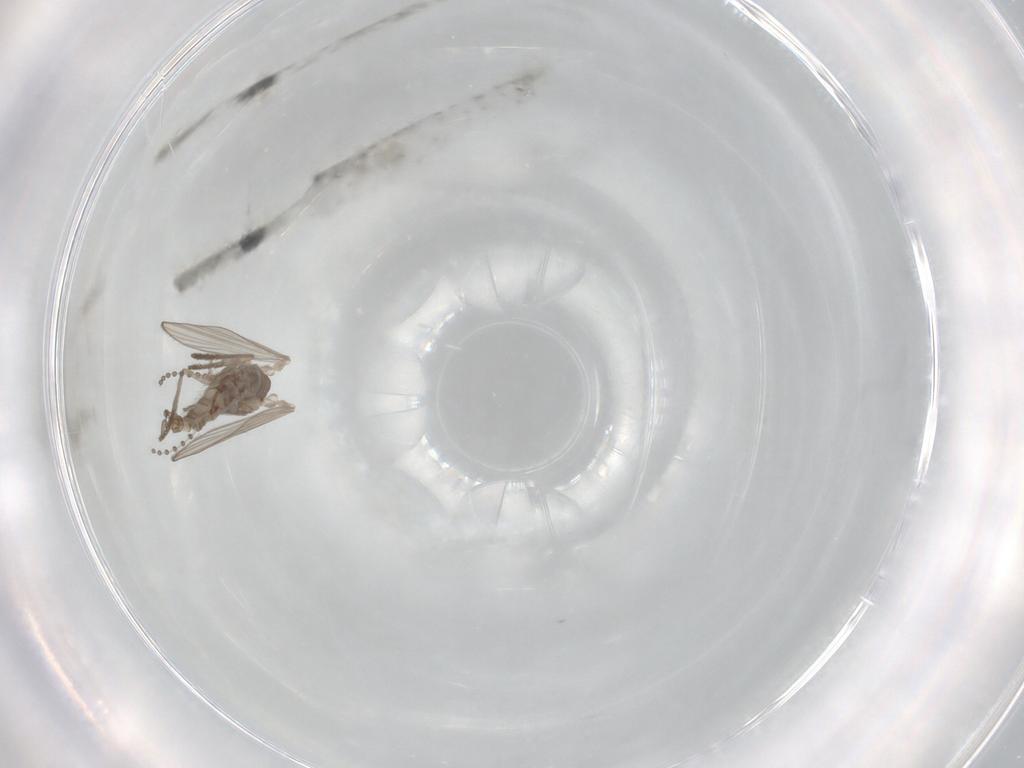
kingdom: Animalia
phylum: Arthropoda
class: Insecta
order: Diptera
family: Psychodidae
